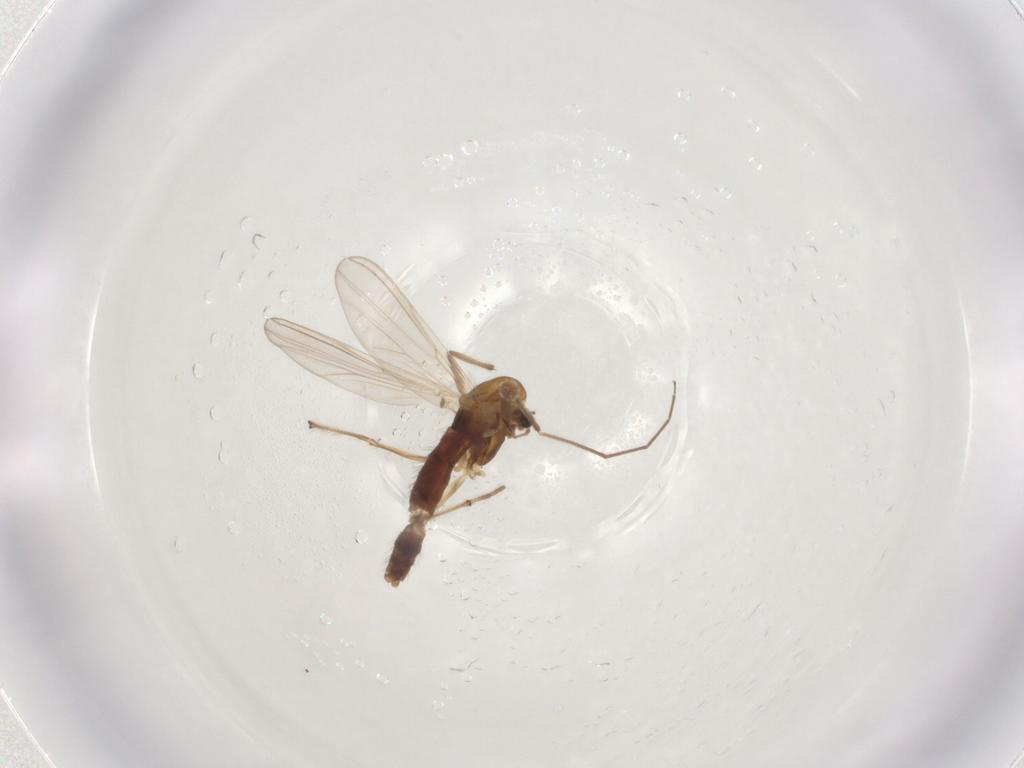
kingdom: Animalia
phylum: Arthropoda
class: Insecta
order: Diptera
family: Chironomidae
